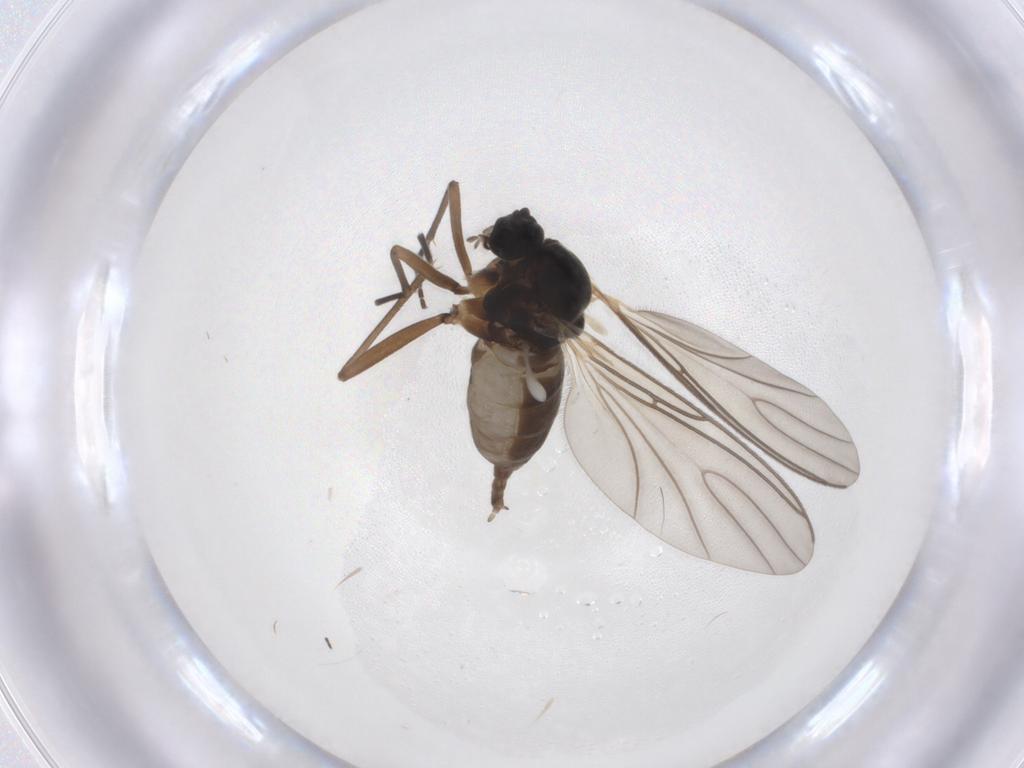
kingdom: Animalia
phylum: Arthropoda
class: Insecta
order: Diptera
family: Sciaridae
